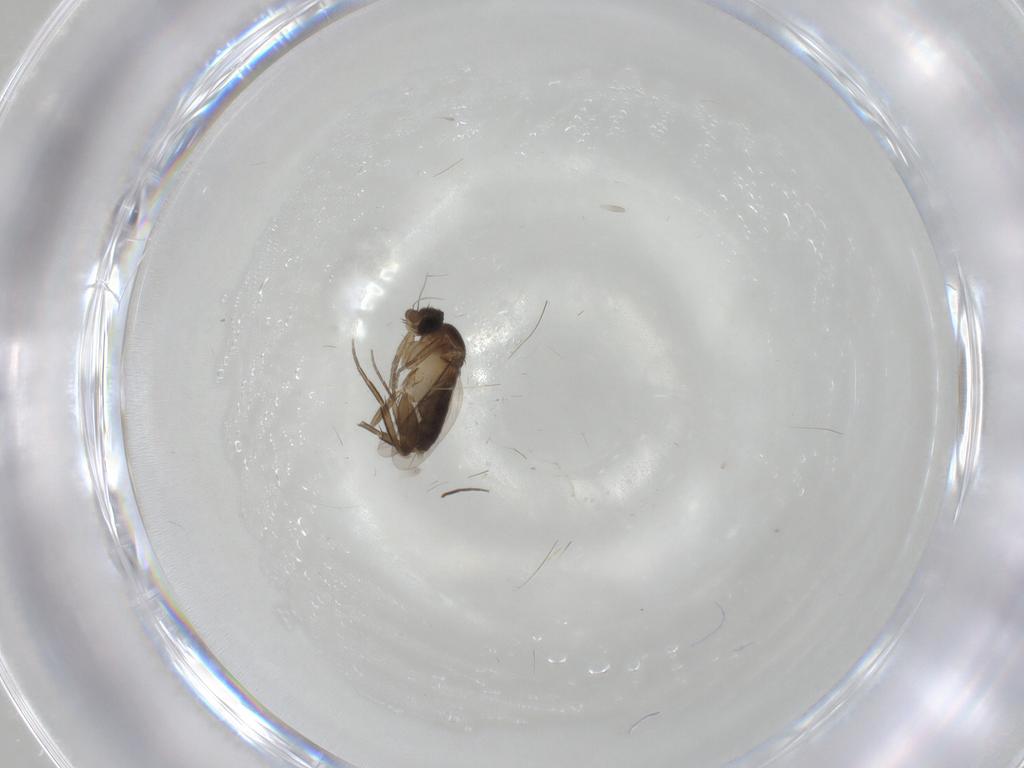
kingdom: Animalia
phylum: Arthropoda
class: Insecta
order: Diptera
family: Phoridae
